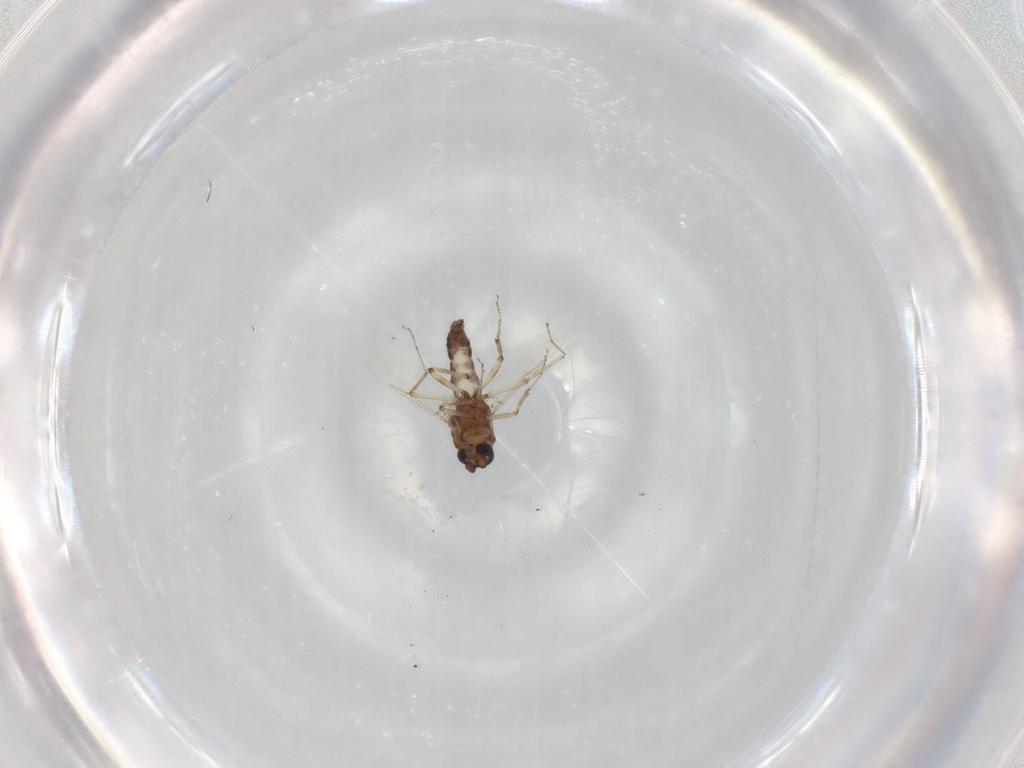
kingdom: Animalia
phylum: Arthropoda
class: Insecta
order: Diptera
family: Ceratopogonidae
